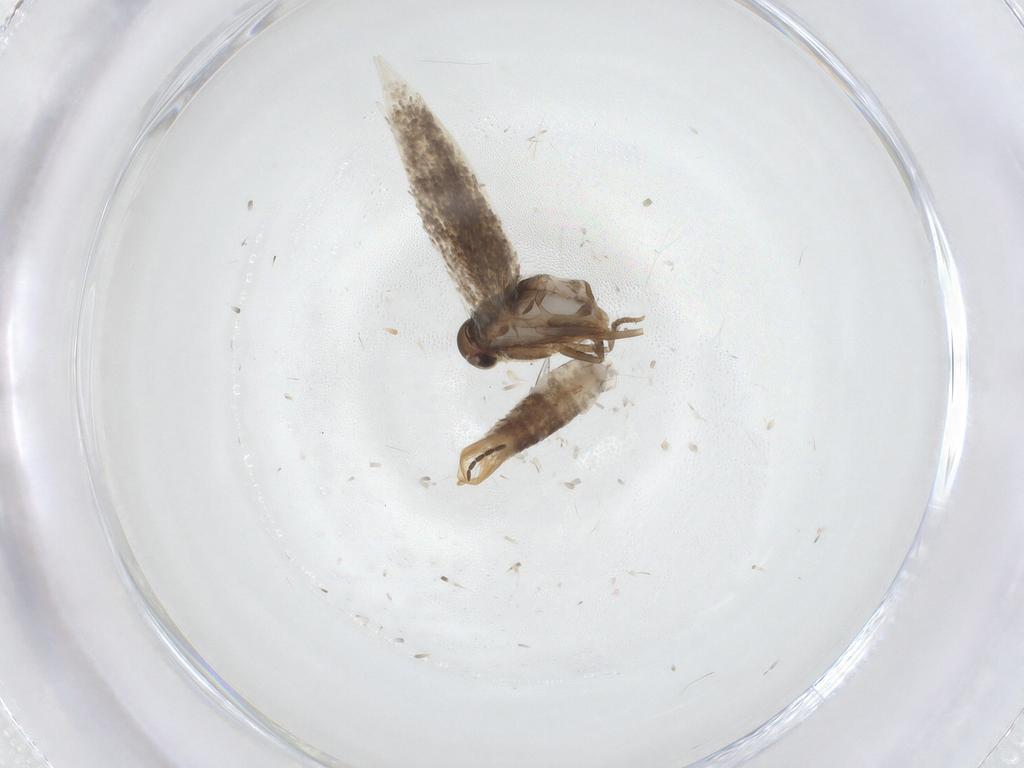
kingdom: Animalia
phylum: Arthropoda
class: Insecta
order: Lepidoptera
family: Elachistidae
